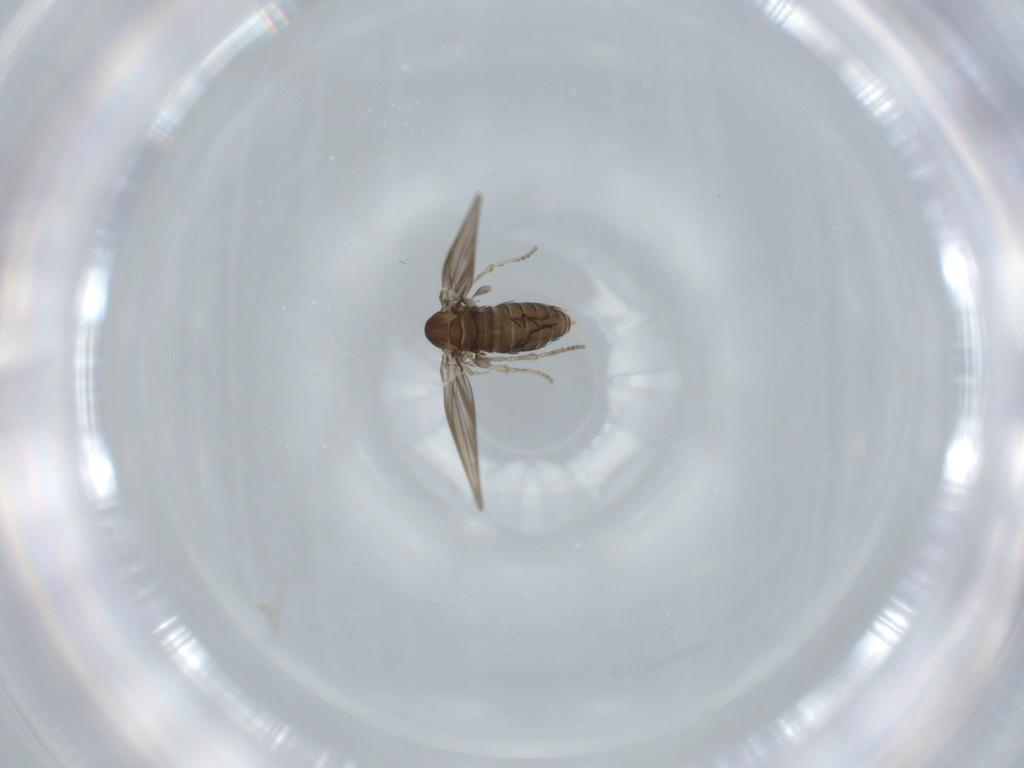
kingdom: Animalia
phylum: Arthropoda
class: Insecta
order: Diptera
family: Psychodidae
